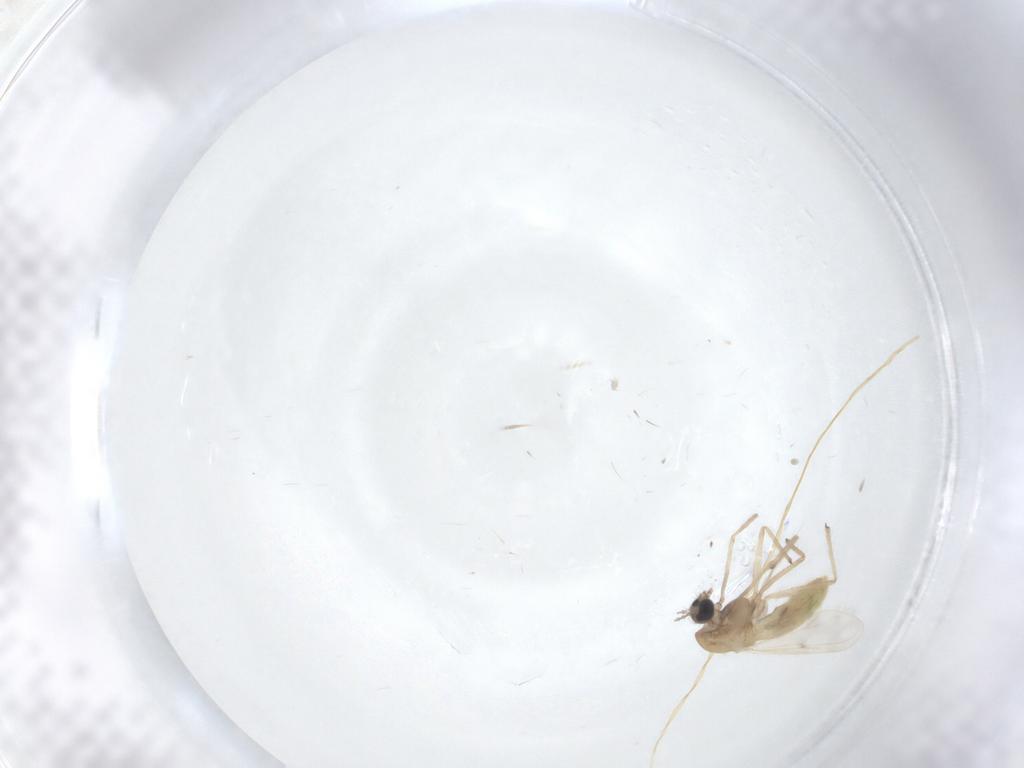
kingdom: Animalia
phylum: Arthropoda
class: Insecta
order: Diptera
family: Chironomidae
